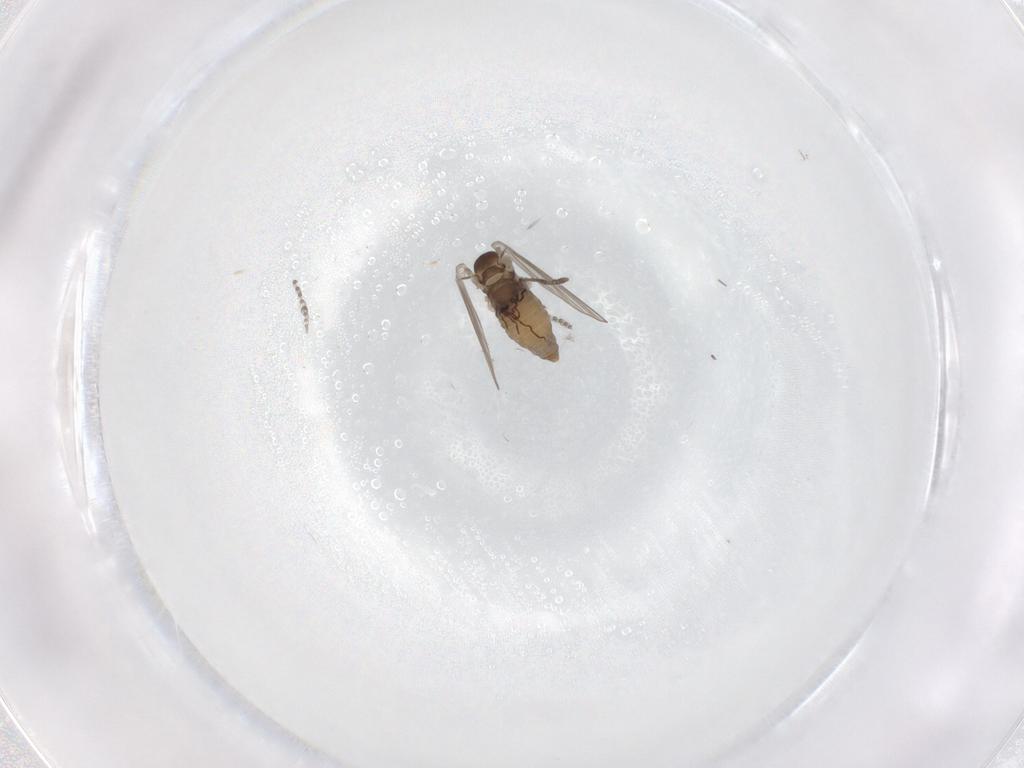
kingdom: Animalia
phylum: Arthropoda
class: Insecta
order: Diptera
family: Psychodidae
